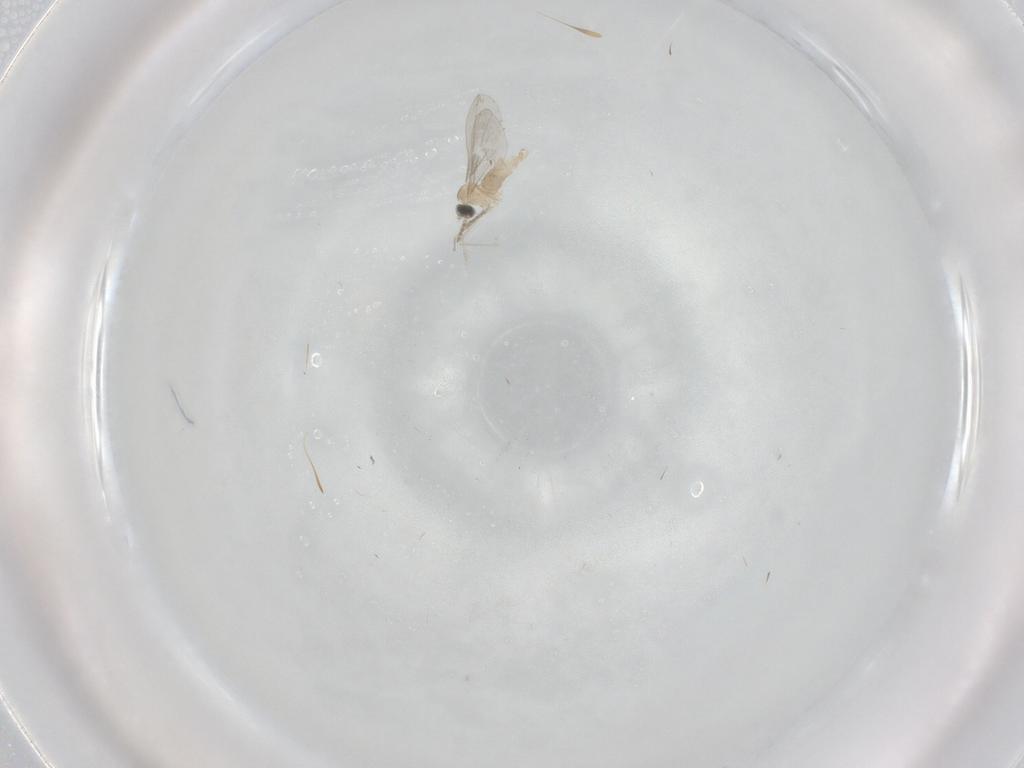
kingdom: Animalia
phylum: Arthropoda
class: Insecta
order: Diptera
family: Cecidomyiidae
